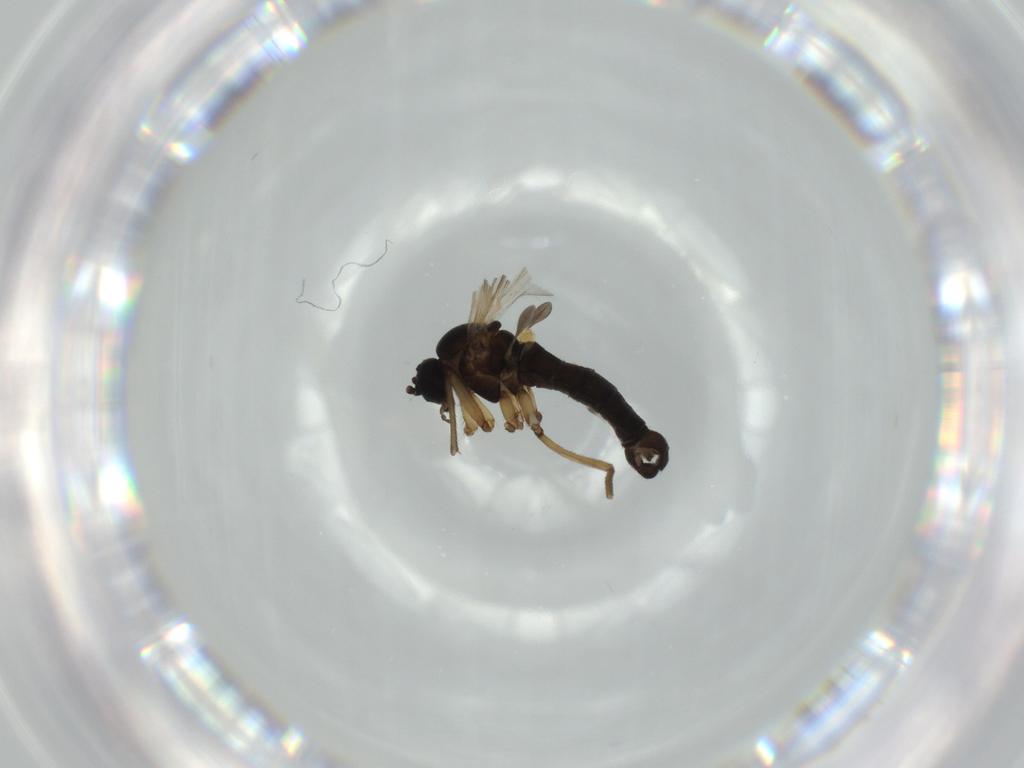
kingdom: Animalia
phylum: Arthropoda
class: Insecta
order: Diptera
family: Sciaridae
